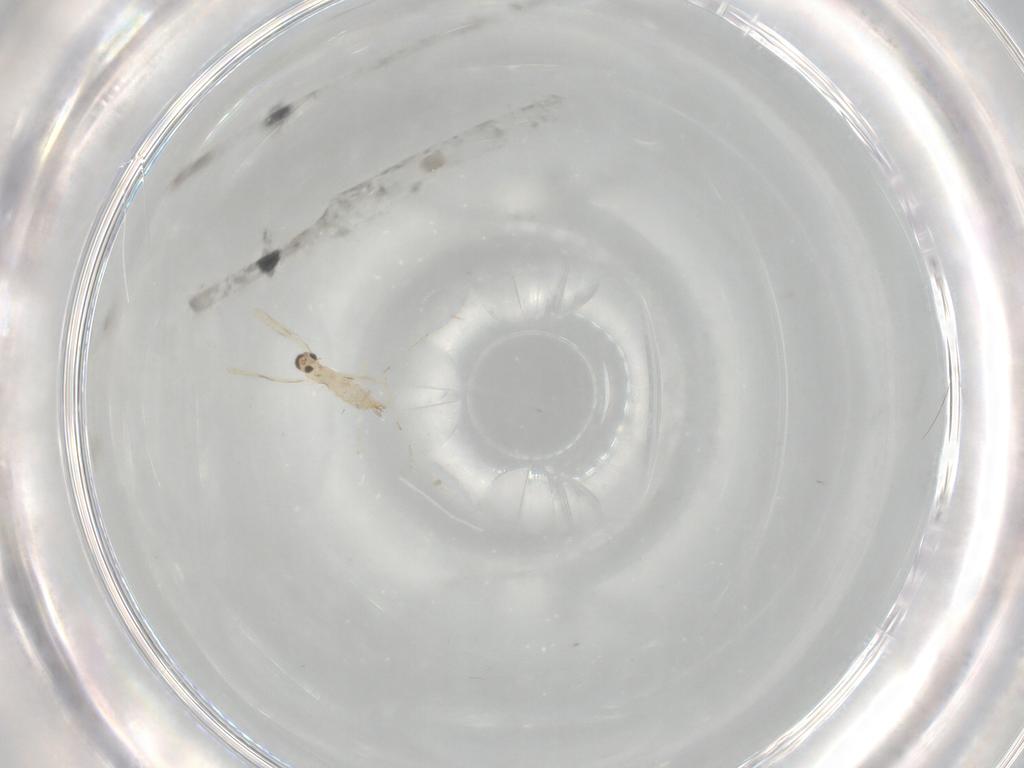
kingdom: Animalia
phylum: Arthropoda
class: Insecta
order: Diptera
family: Cecidomyiidae
